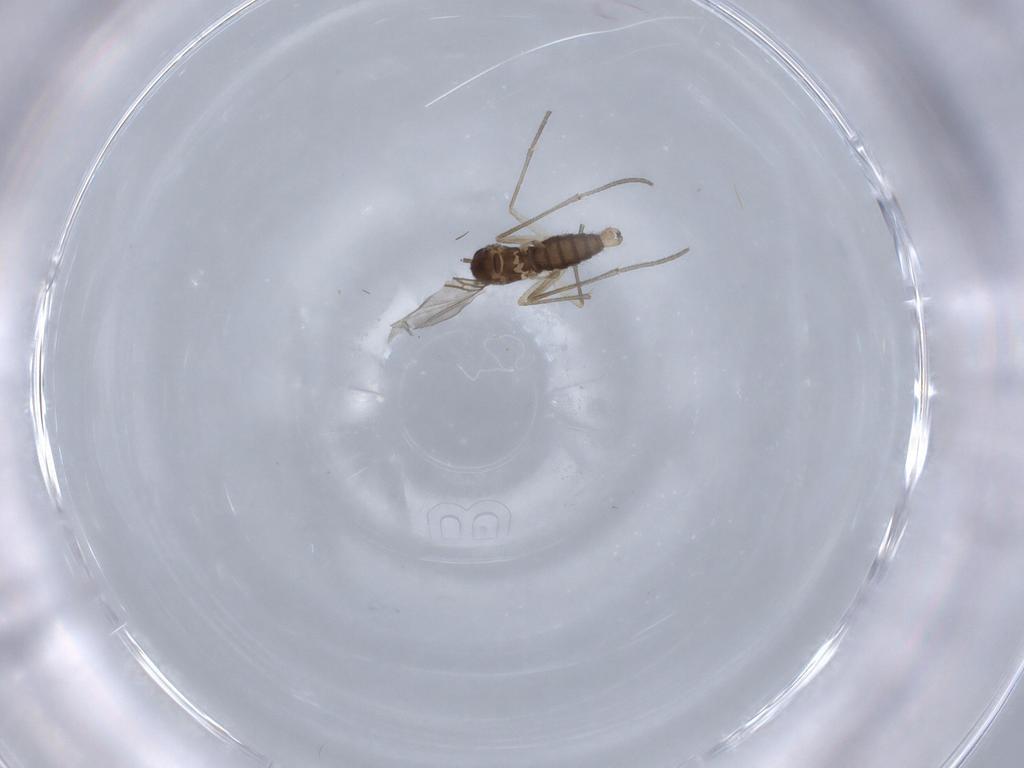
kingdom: Animalia
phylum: Arthropoda
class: Insecta
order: Diptera
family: Sciaridae
